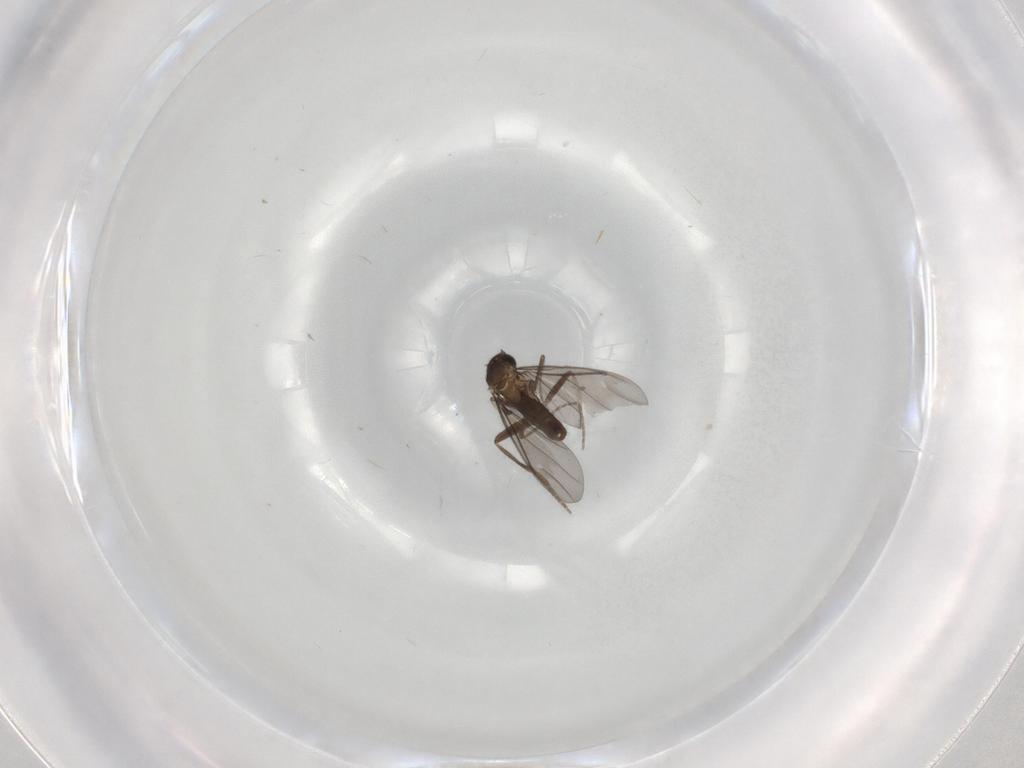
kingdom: Animalia
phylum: Arthropoda
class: Insecta
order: Diptera
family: Phoridae
